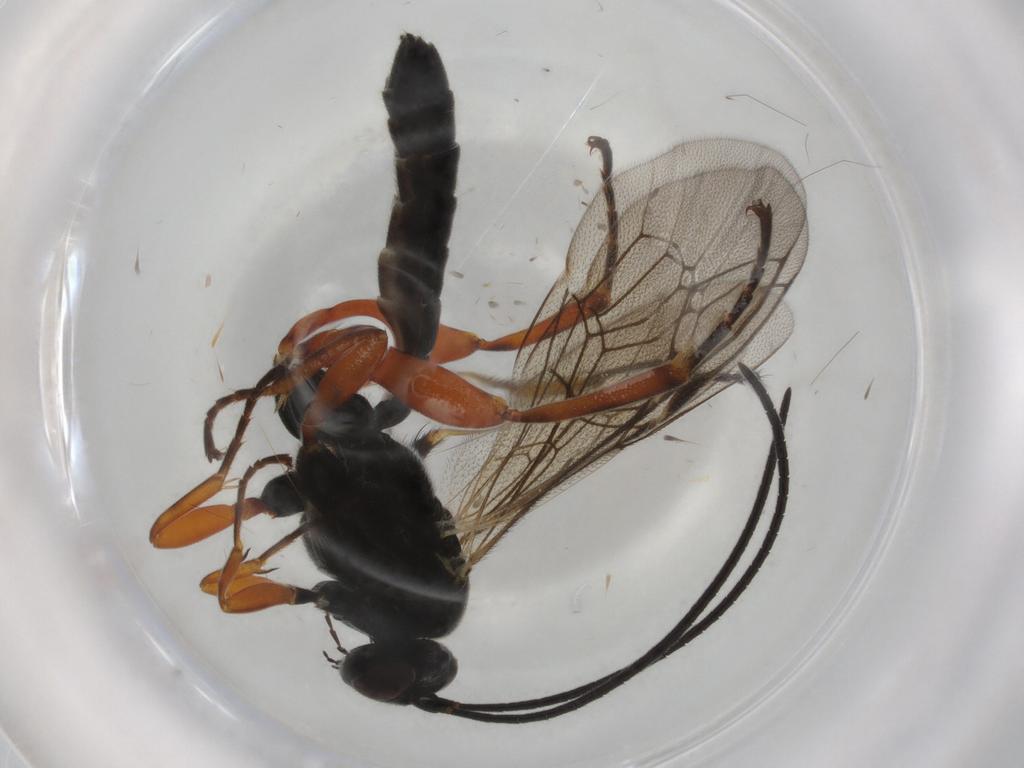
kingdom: Animalia
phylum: Arthropoda
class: Insecta
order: Hymenoptera
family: Ichneumonidae
